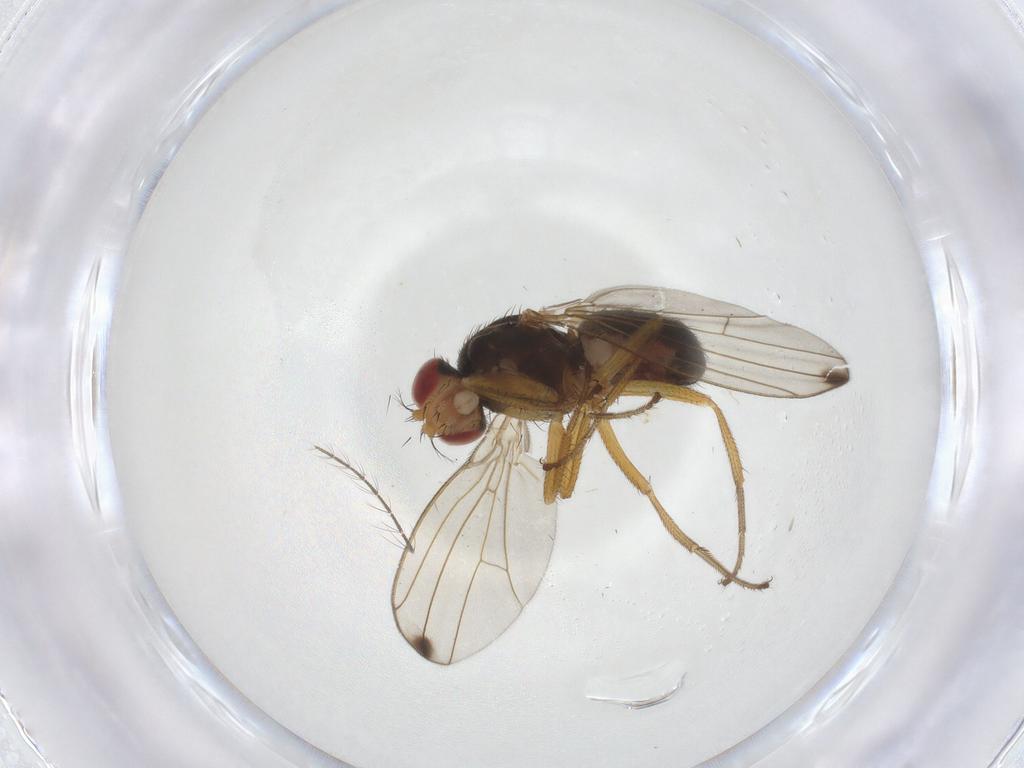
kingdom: Animalia
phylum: Arthropoda
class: Insecta
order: Diptera
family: Drosophilidae
